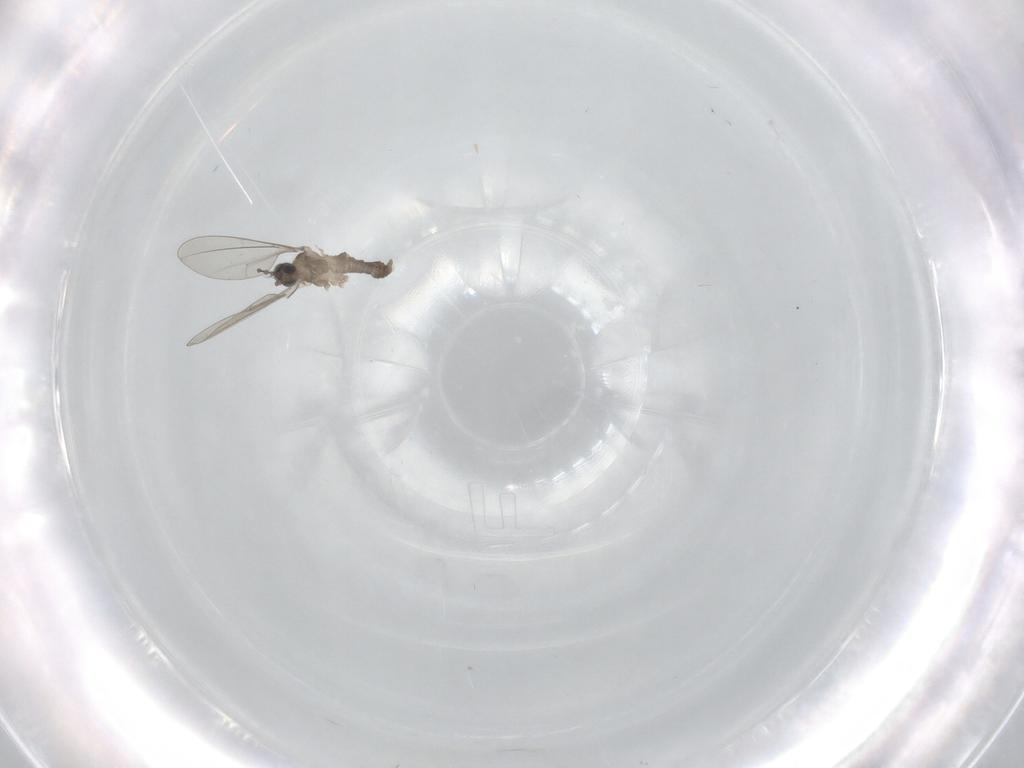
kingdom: Animalia
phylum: Arthropoda
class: Insecta
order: Diptera
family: Cecidomyiidae
